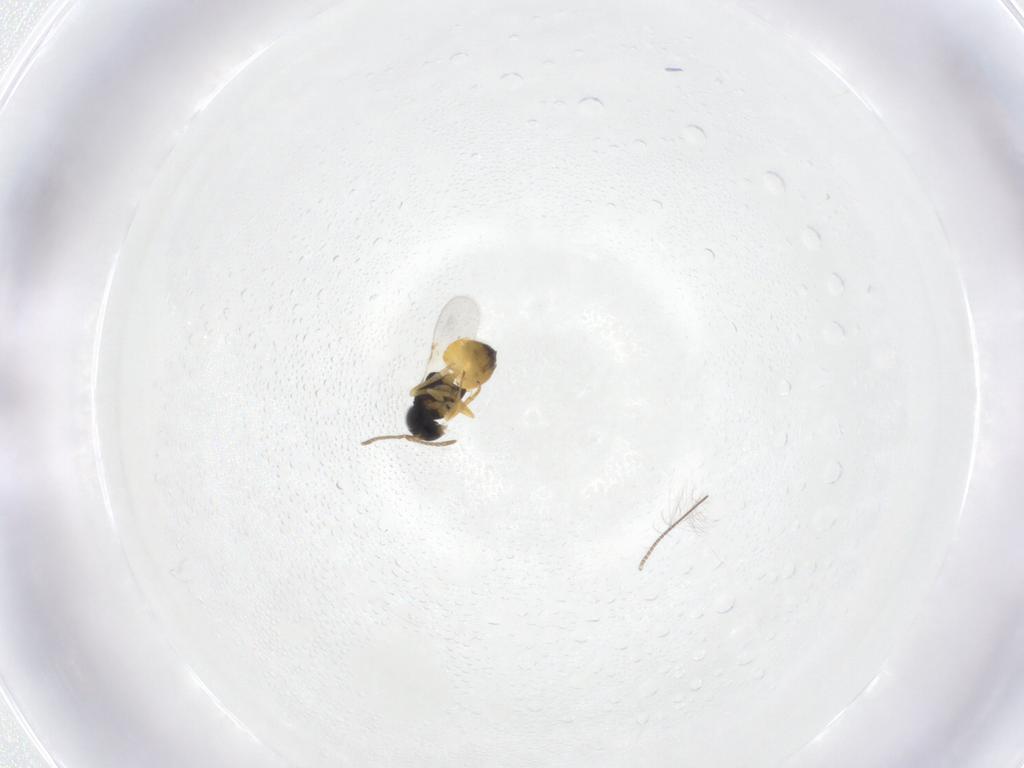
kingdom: Animalia
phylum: Arthropoda
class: Insecta
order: Hymenoptera
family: Encyrtidae
